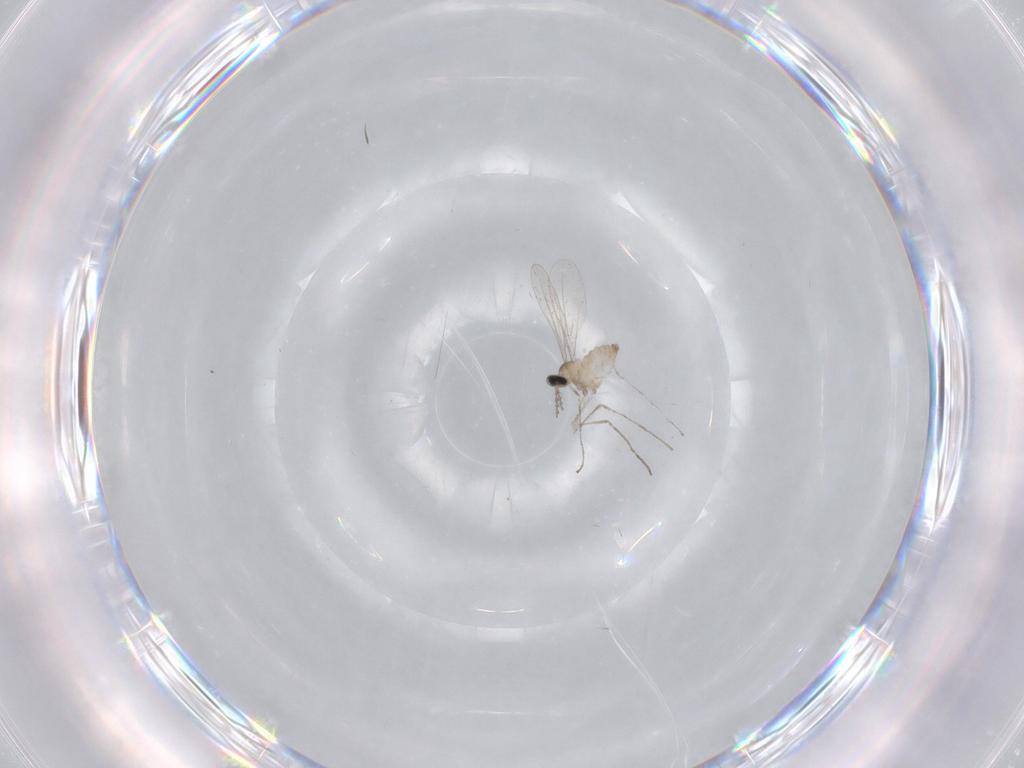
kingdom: Animalia
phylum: Arthropoda
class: Insecta
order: Diptera
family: Cecidomyiidae
